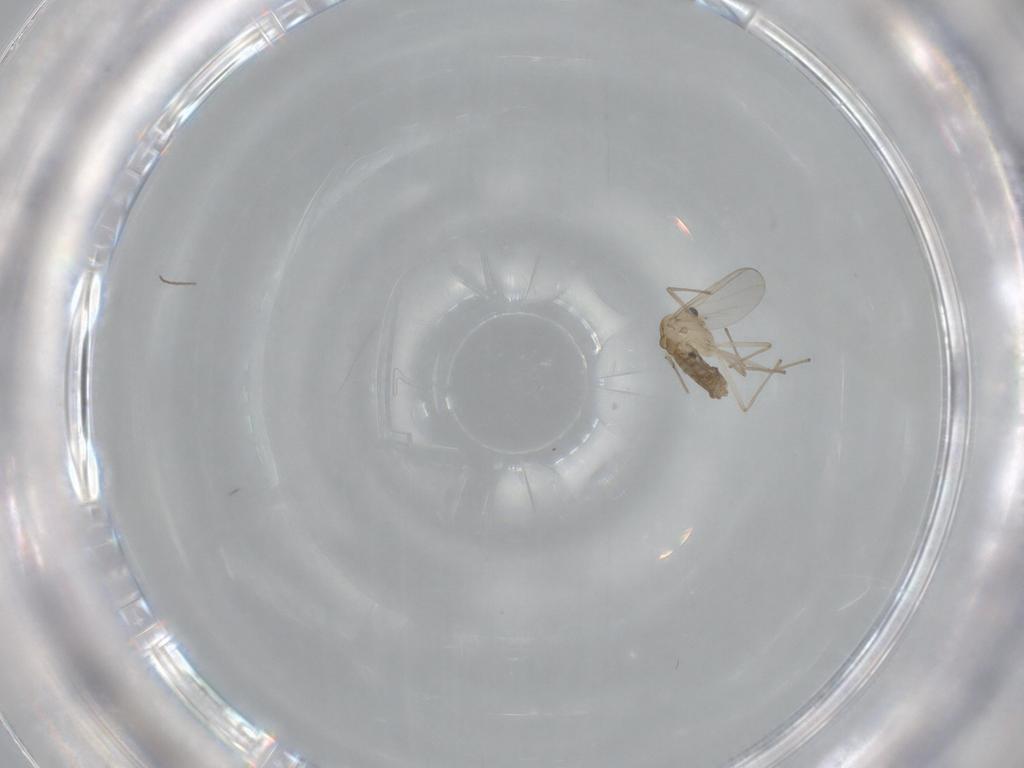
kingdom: Animalia
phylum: Arthropoda
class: Insecta
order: Diptera
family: Chironomidae
